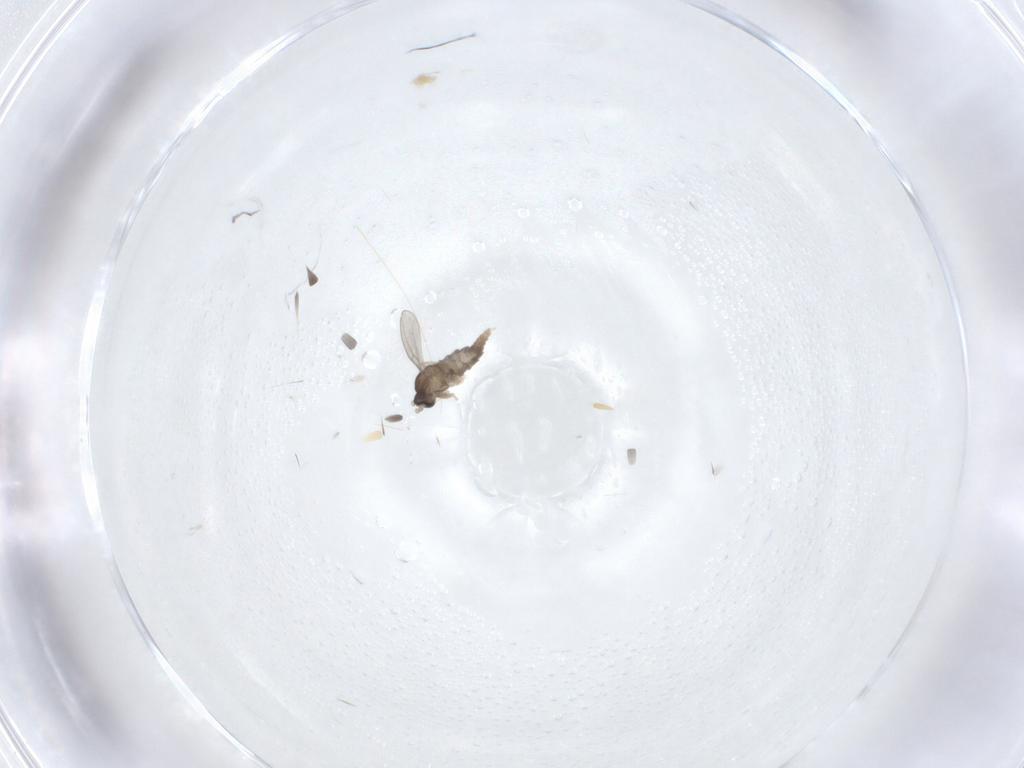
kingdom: Animalia
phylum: Arthropoda
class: Insecta
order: Diptera
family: Cecidomyiidae
